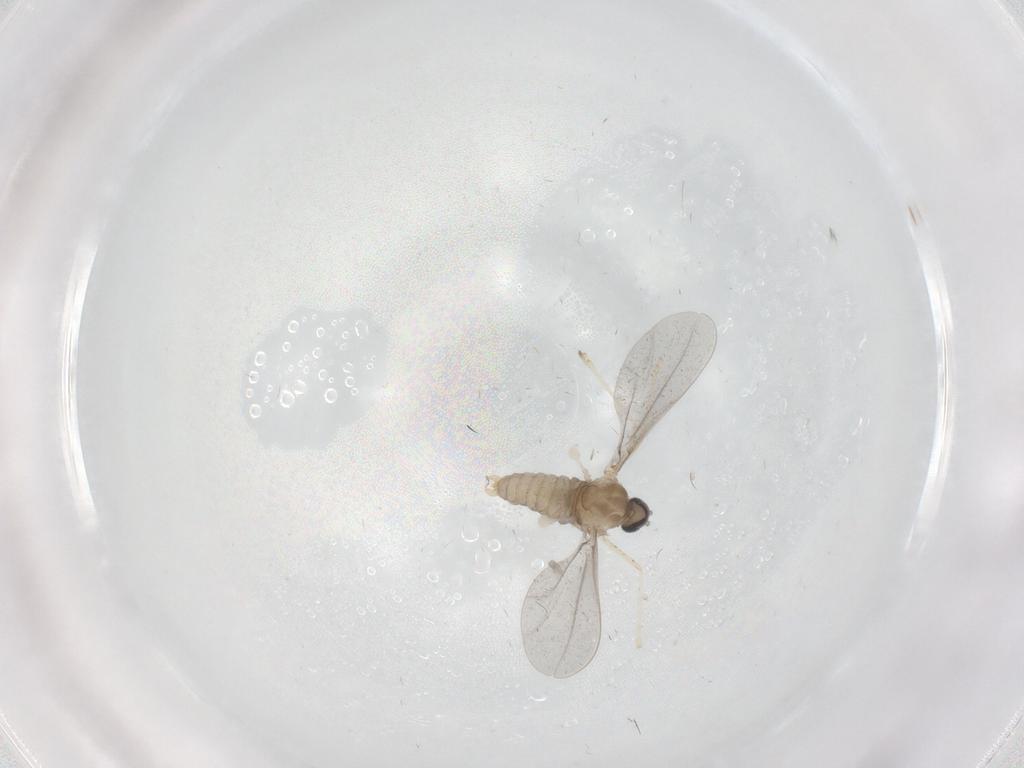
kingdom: Animalia
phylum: Arthropoda
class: Insecta
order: Diptera
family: Cecidomyiidae
